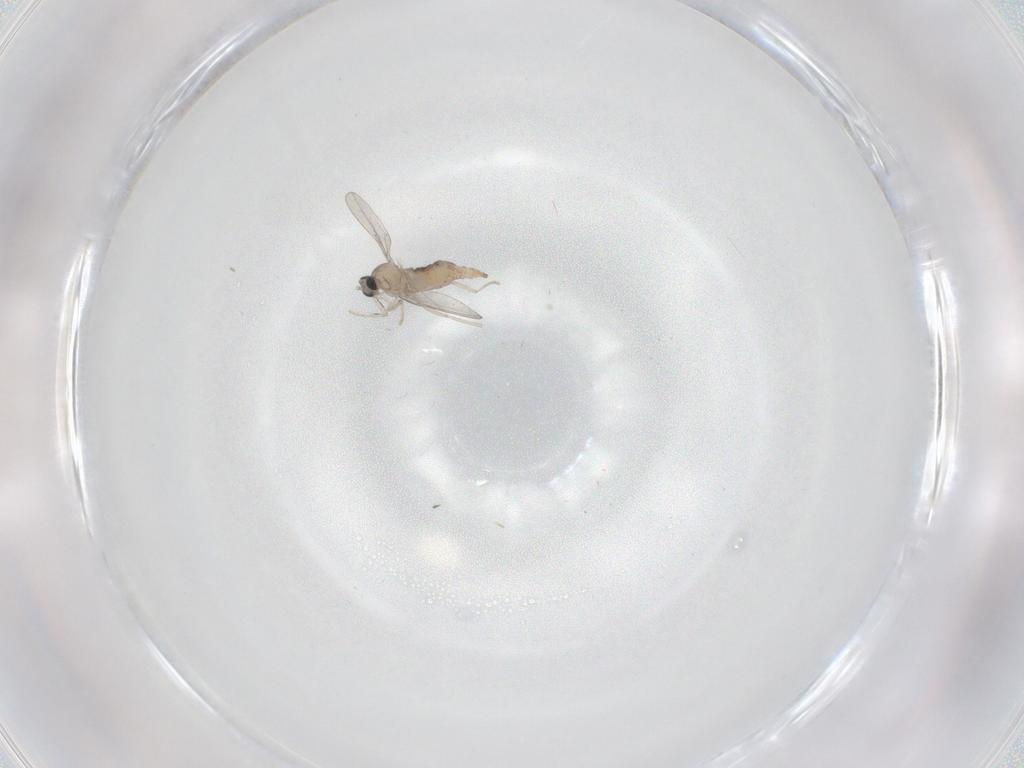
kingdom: Animalia
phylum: Arthropoda
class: Insecta
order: Diptera
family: Cecidomyiidae
